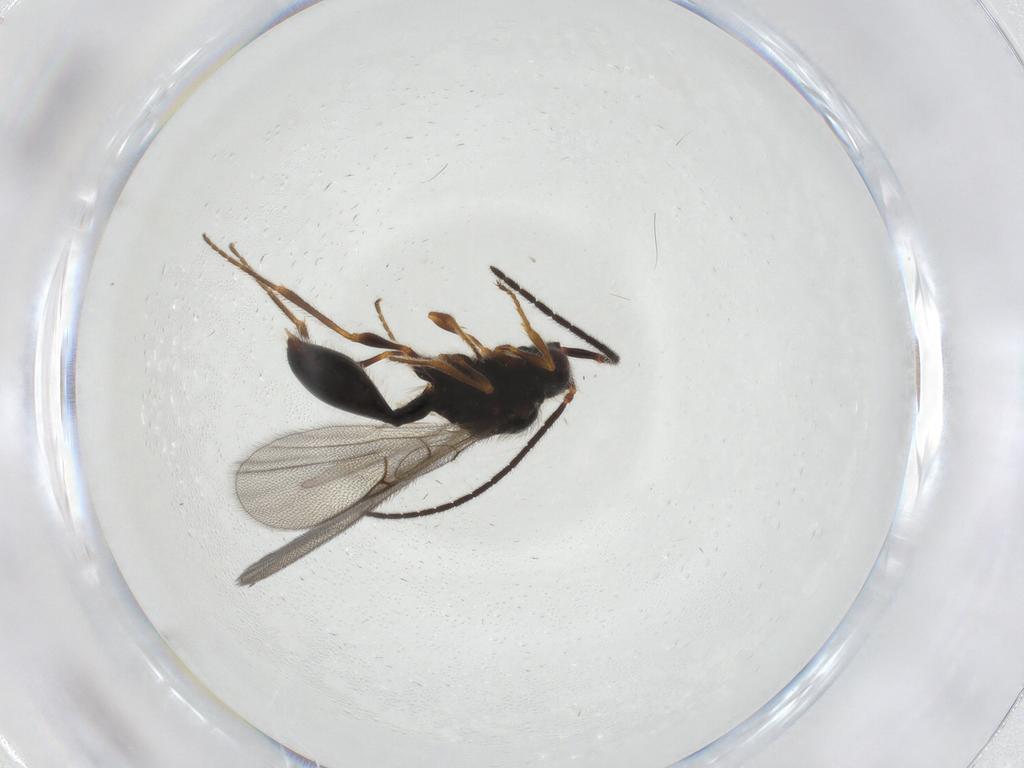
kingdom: Animalia
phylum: Arthropoda
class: Insecta
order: Hymenoptera
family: Diapriidae
